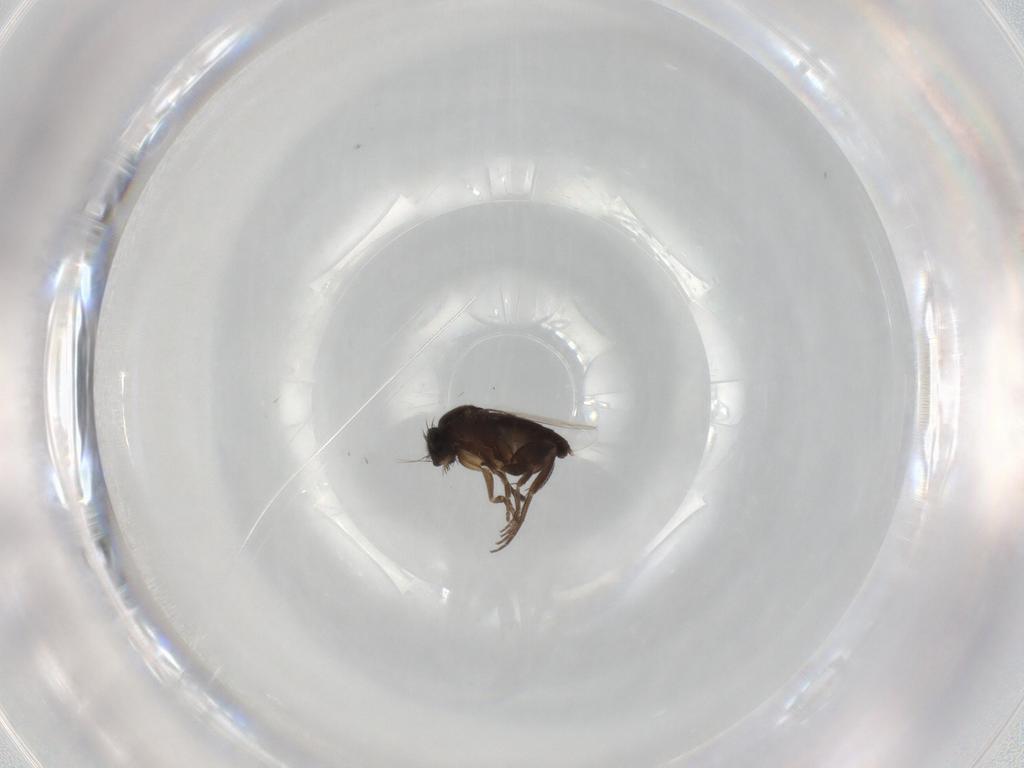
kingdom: Animalia
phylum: Arthropoda
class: Insecta
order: Diptera
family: Phoridae
